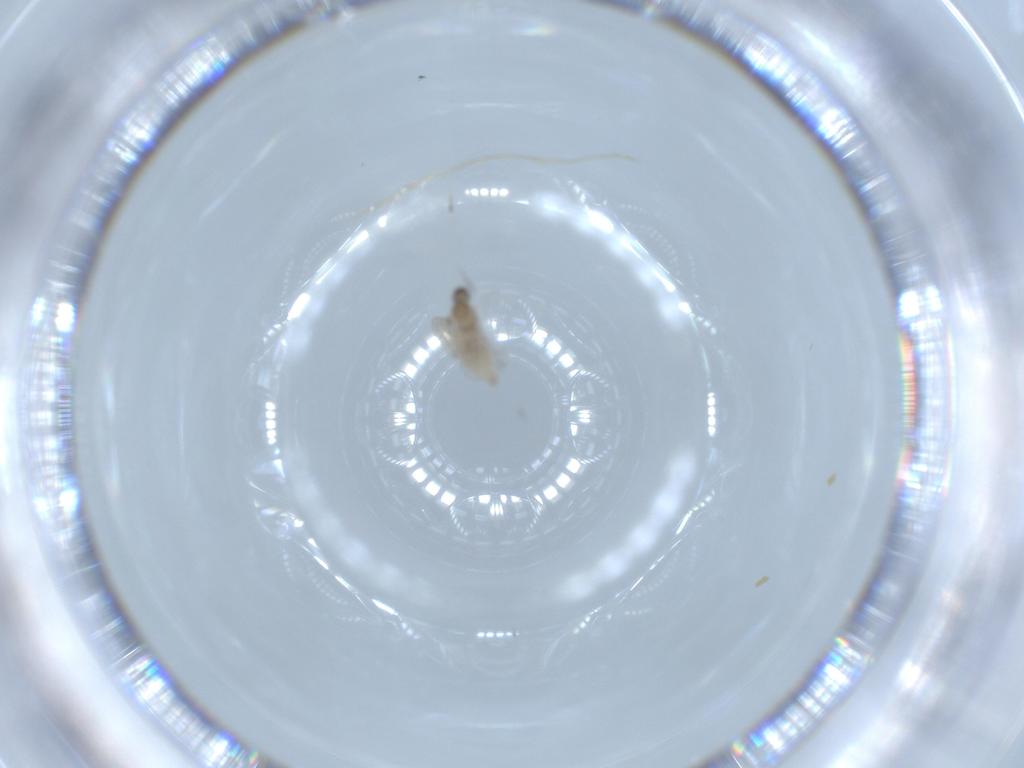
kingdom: Animalia
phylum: Arthropoda
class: Insecta
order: Diptera
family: Cecidomyiidae
